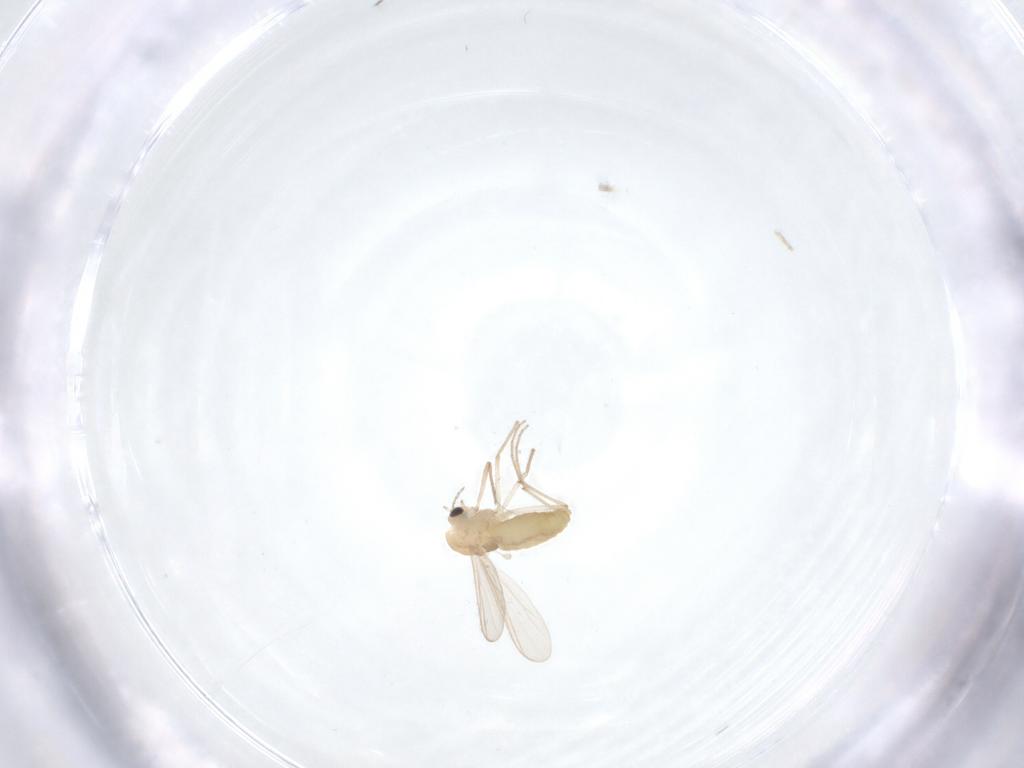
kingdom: Animalia
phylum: Arthropoda
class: Insecta
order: Diptera
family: Chironomidae
